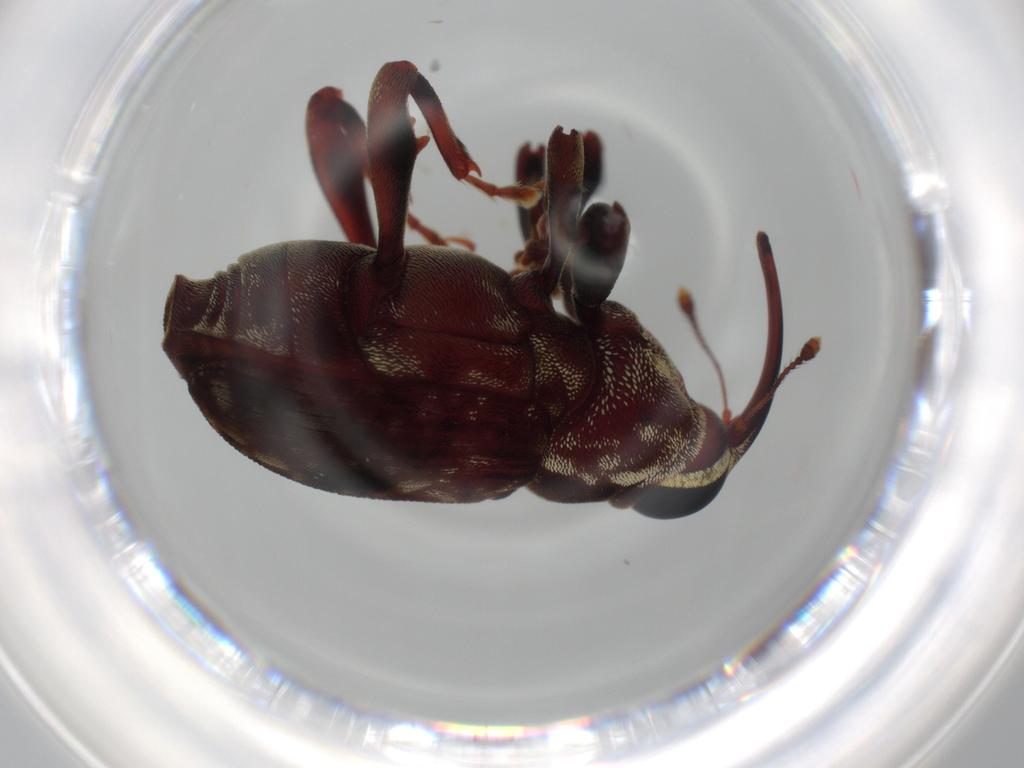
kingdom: Animalia
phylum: Arthropoda
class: Insecta
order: Coleoptera
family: Curculionidae
